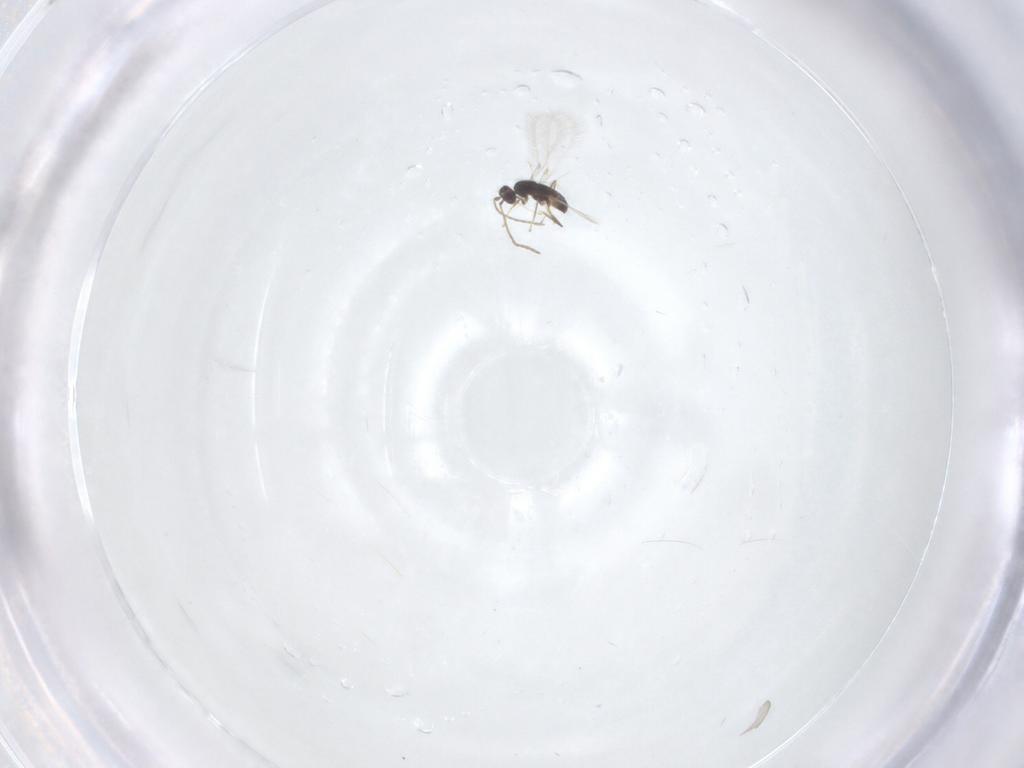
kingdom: Animalia
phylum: Arthropoda
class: Insecta
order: Hymenoptera
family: Mymaridae
